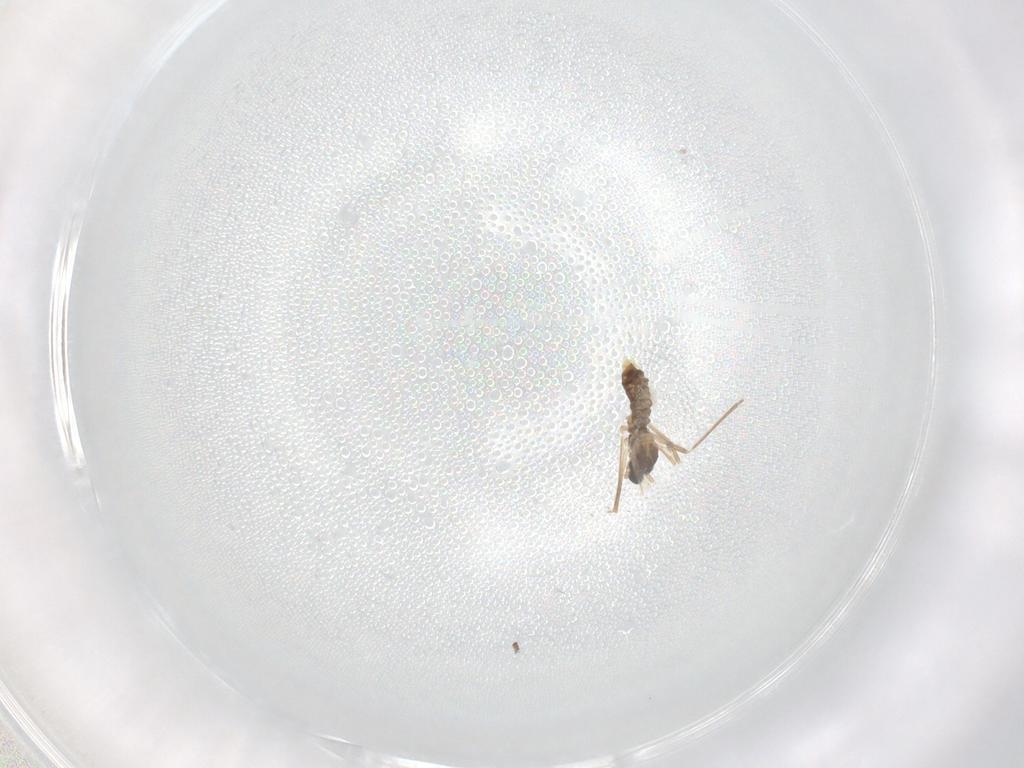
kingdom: Animalia
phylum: Arthropoda
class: Insecta
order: Diptera
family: Cecidomyiidae
